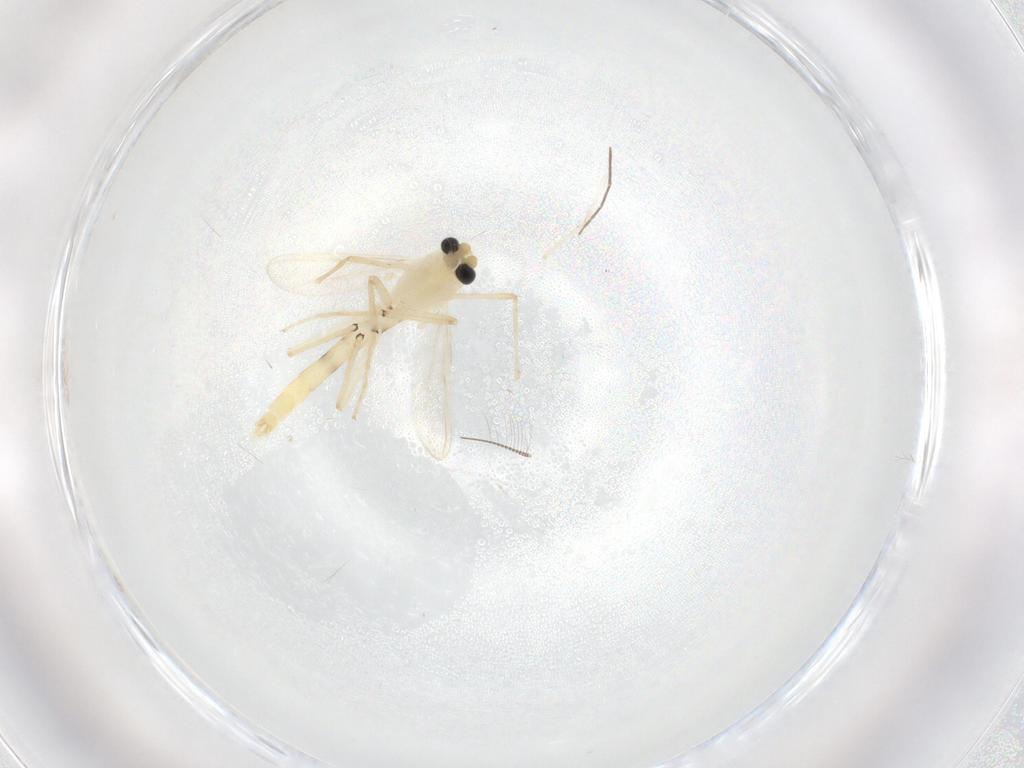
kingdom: Animalia
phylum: Arthropoda
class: Insecta
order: Diptera
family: Chironomidae
